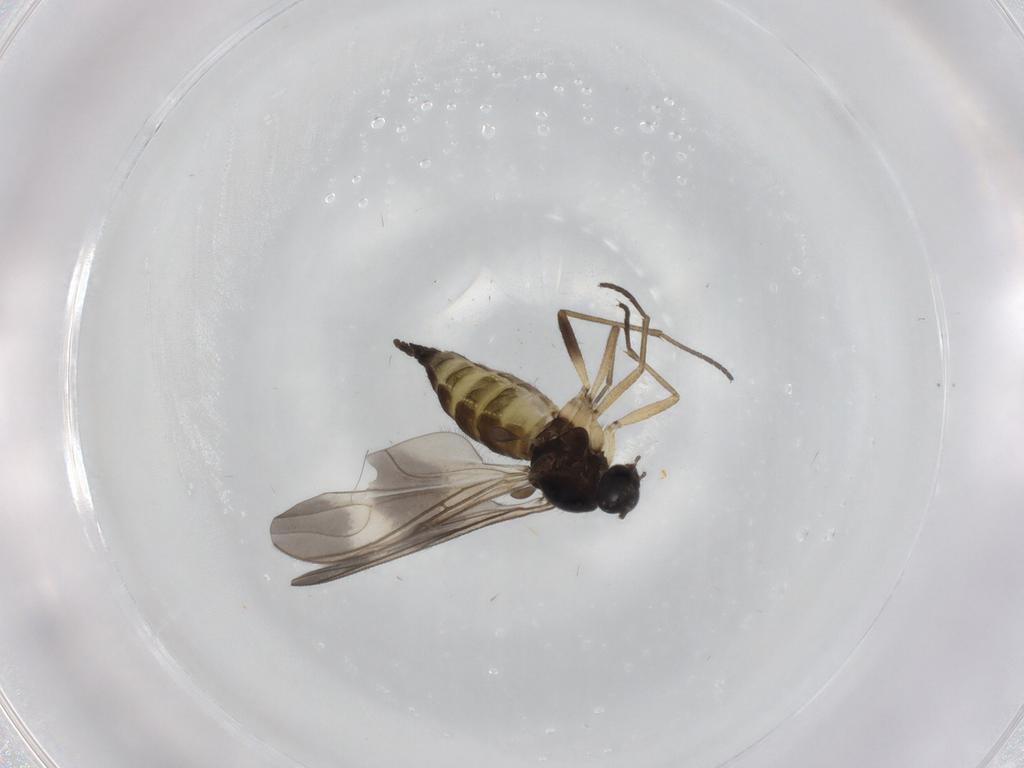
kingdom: Animalia
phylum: Arthropoda
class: Insecta
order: Diptera
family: Sciaridae
